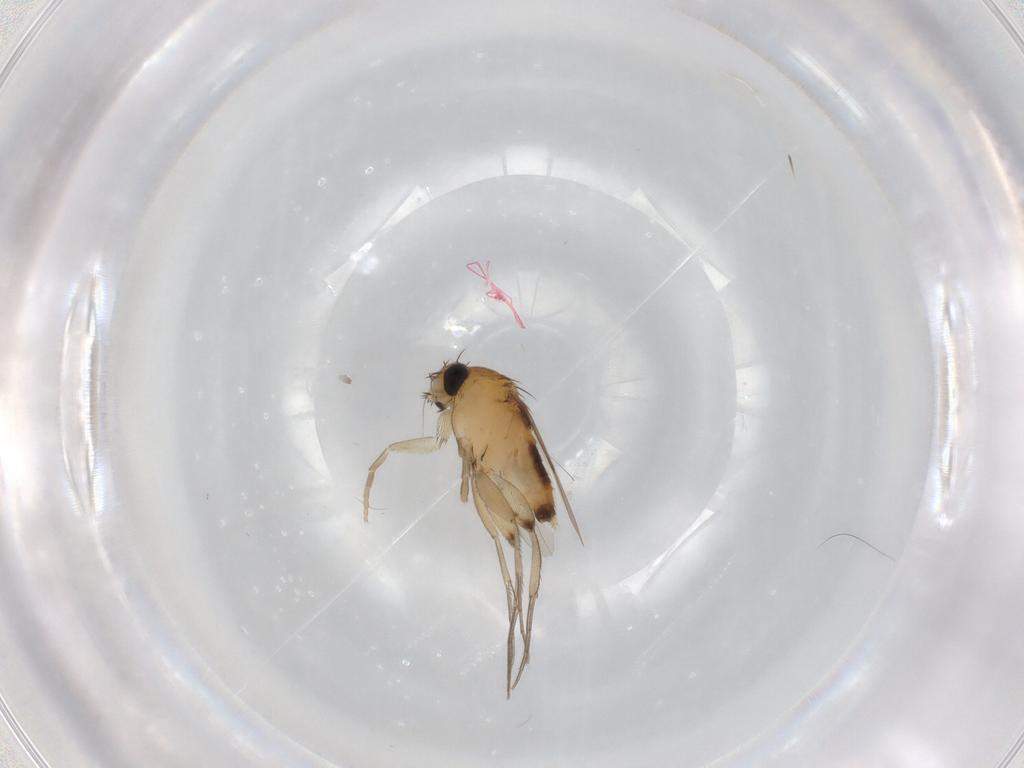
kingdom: Animalia
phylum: Arthropoda
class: Insecta
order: Diptera
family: Phoridae
